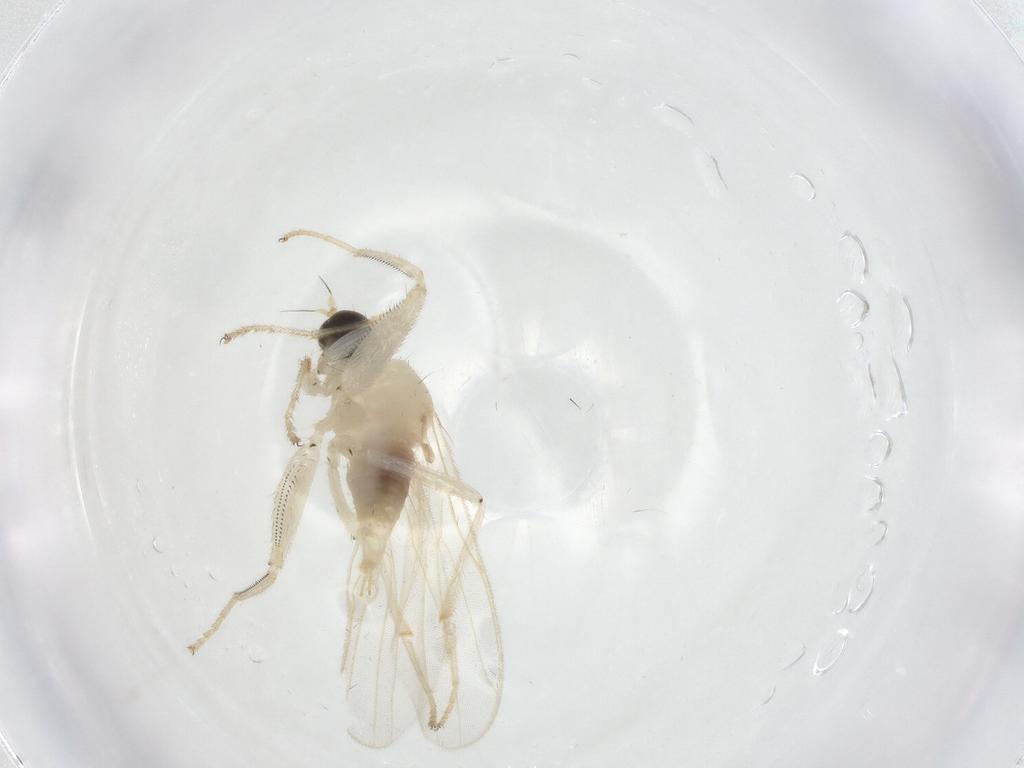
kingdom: Animalia
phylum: Arthropoda
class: Insecta
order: Diptera
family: Hybotidae
